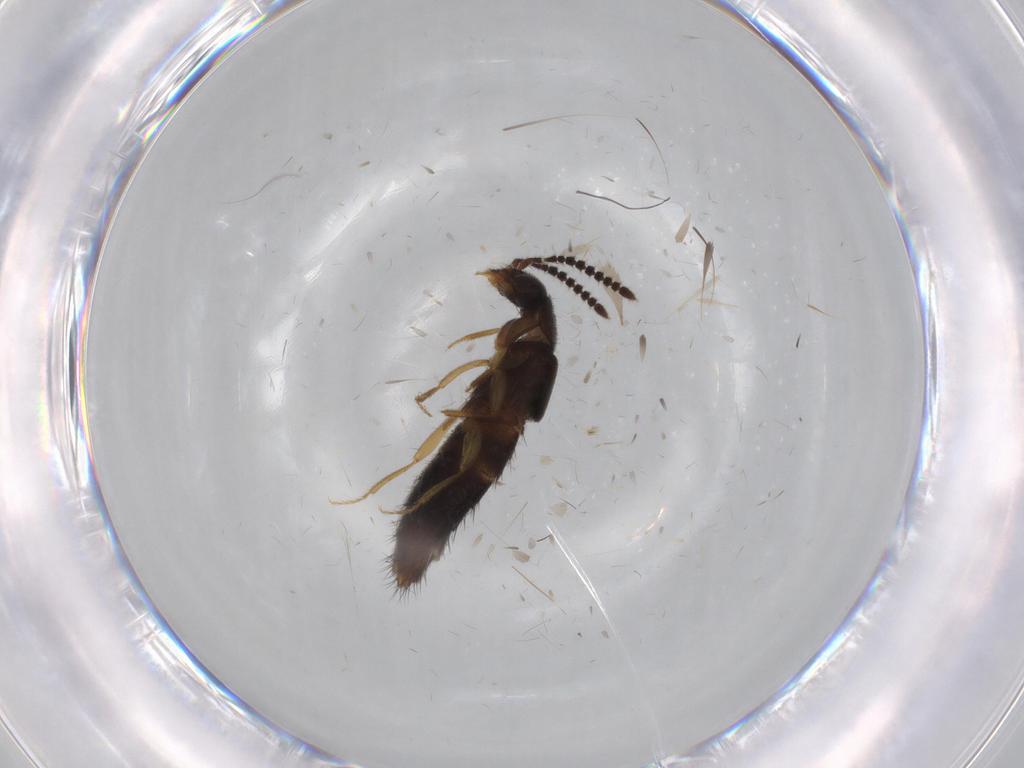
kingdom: Animalia
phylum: Arthropoda
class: Insecta
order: Coleoptera
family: Staphylinidae
